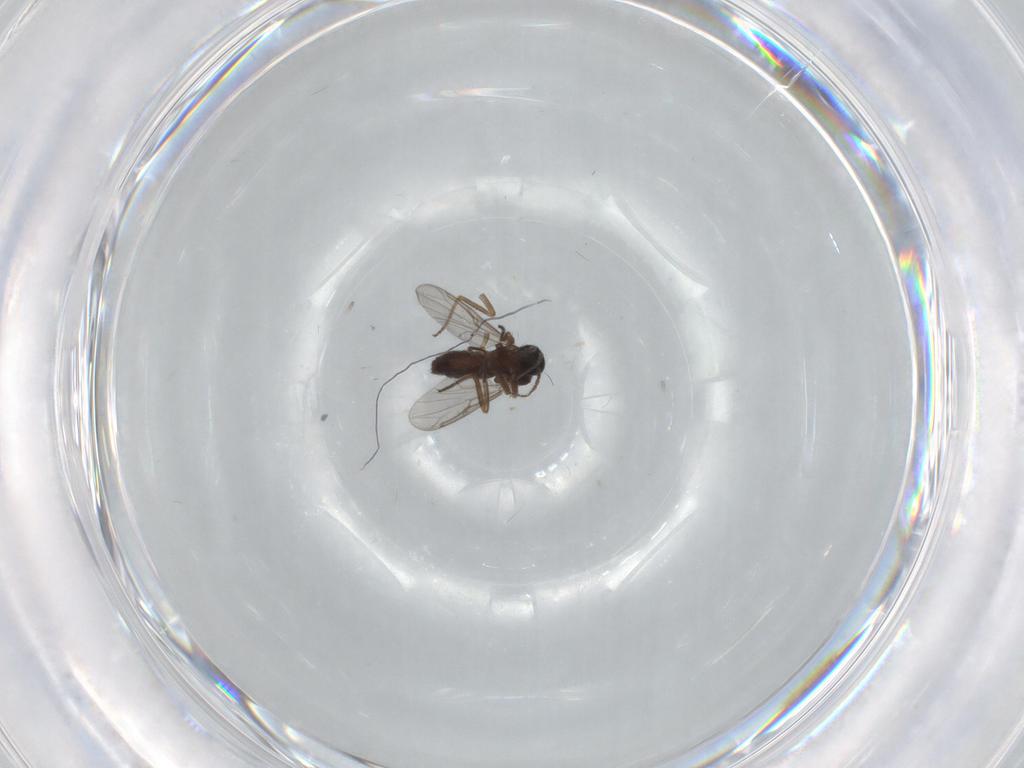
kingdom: Animalia
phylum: Arthropoda
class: Insecta
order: Diptera
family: Ceratopogonidae
